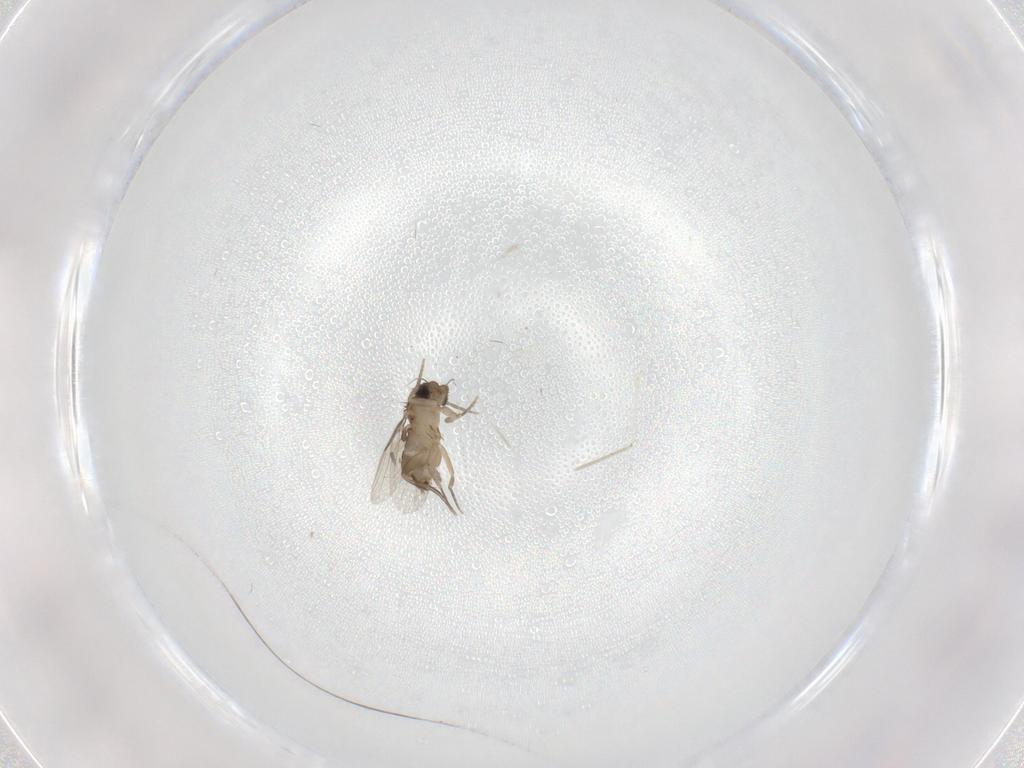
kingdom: Animalia
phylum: Arthropoda
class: Insecta
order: Diptera
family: Phoridae
